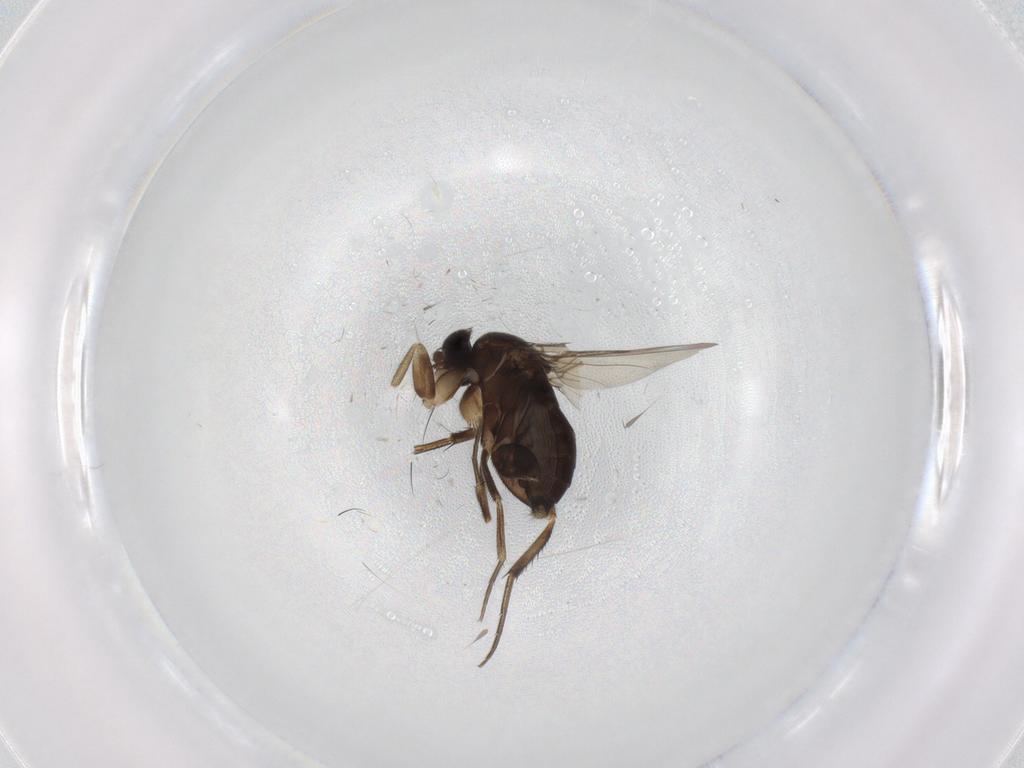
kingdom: Animalia
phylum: Arthropoda
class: Insecta
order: Diptera
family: Phoridae
